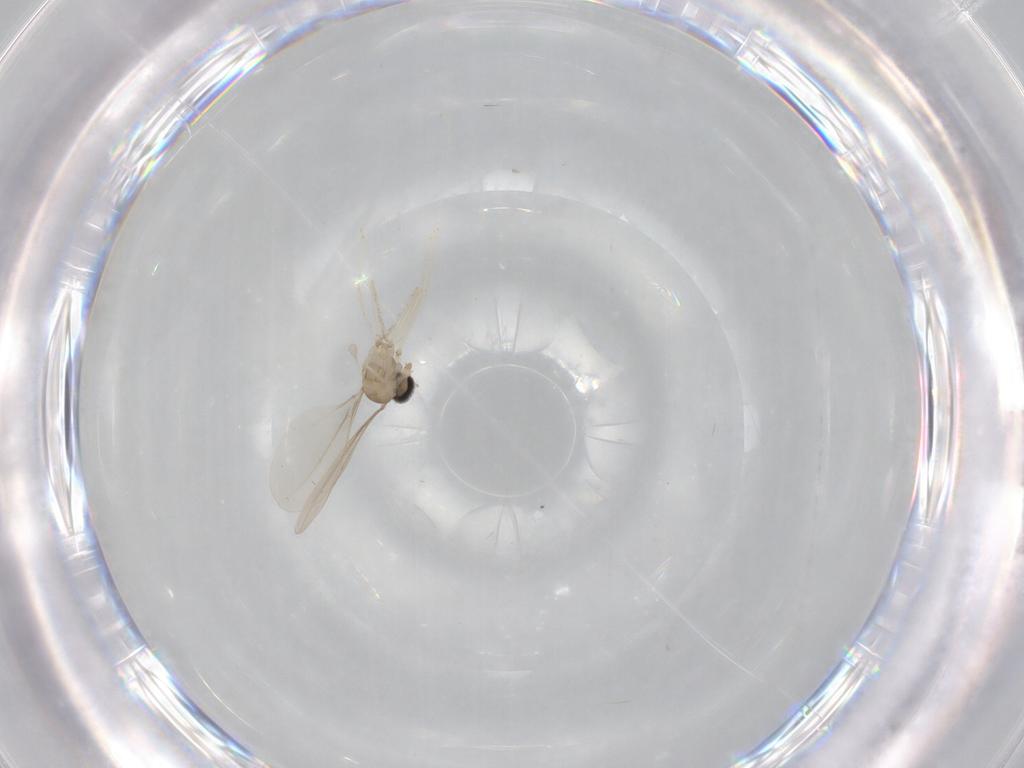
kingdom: Animalia
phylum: Arthropoda
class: Insecta
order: Diptera
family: Cecidomyiidae
